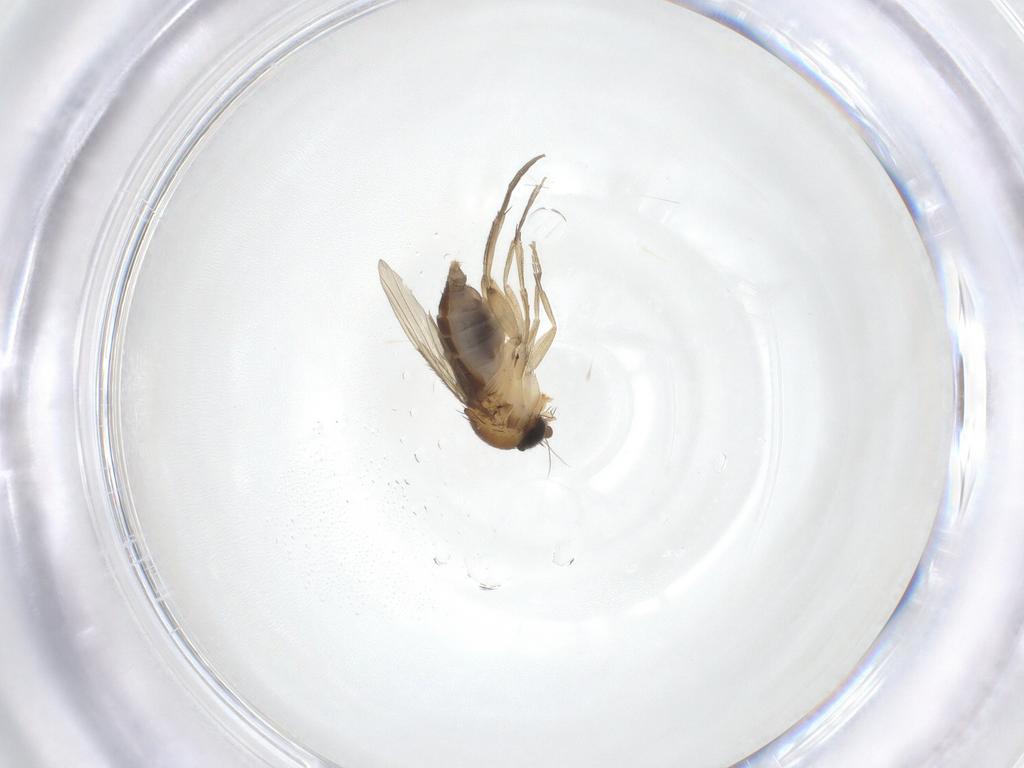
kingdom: Animalia
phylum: Arthropoda
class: Insecta
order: Diptera
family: Phoridae
